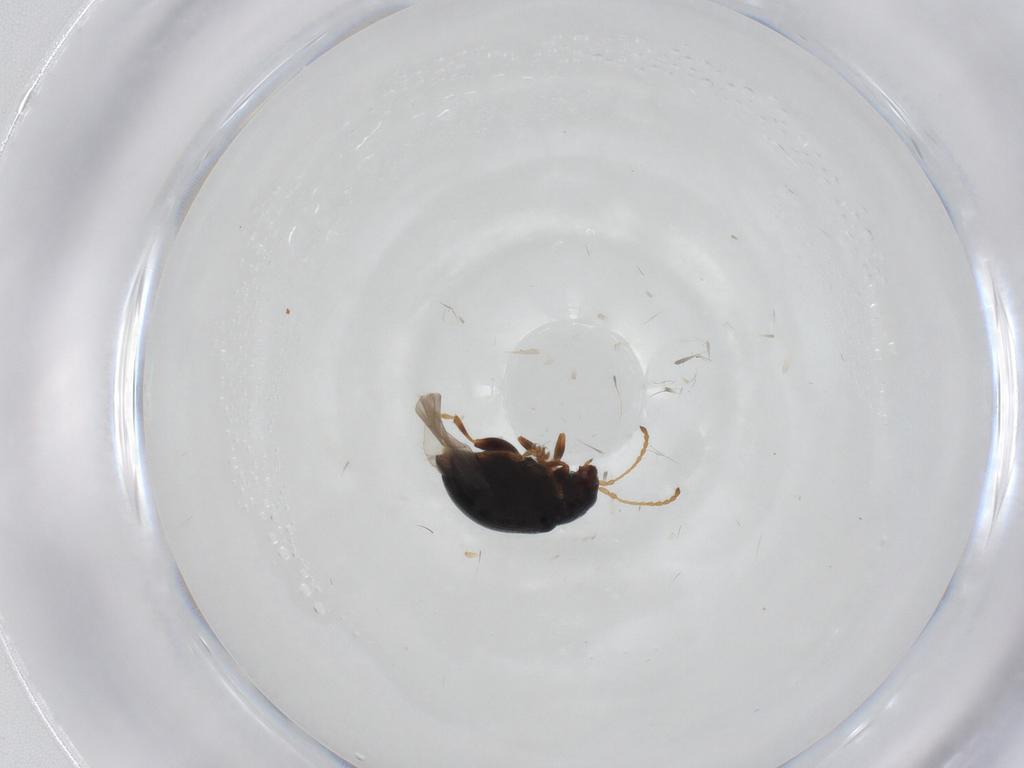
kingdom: Animalia
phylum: Arthropoda
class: Insecta
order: Coleoptera
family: Chrysomelidae
